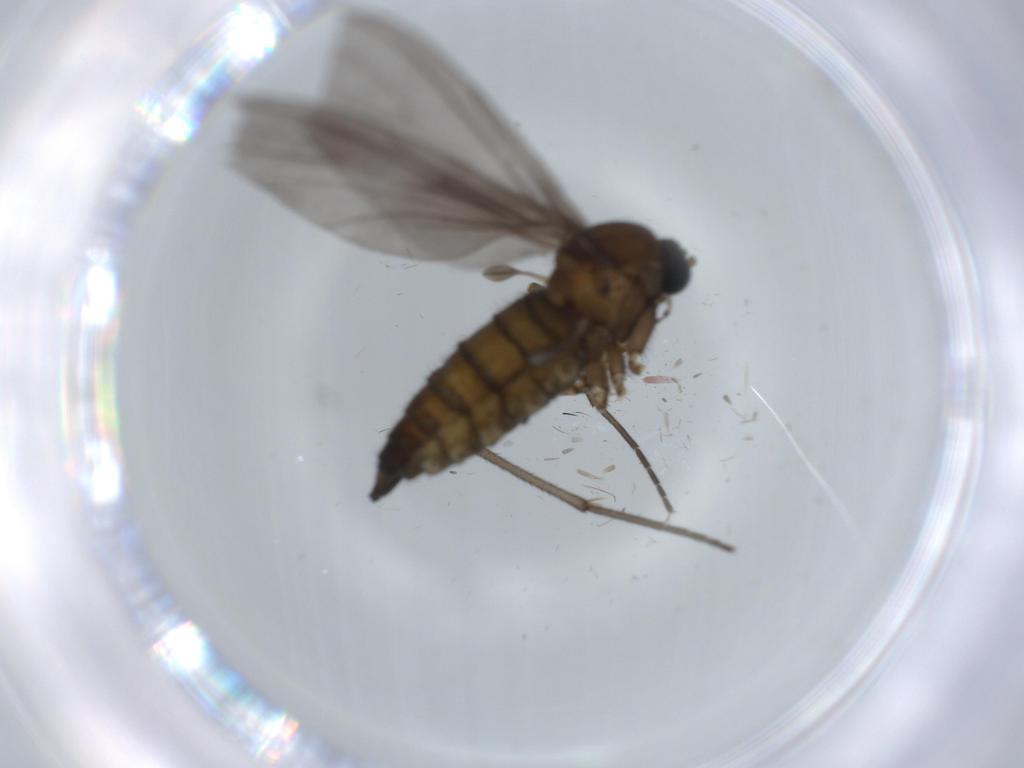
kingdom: Animalia
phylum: Arthropoda
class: Insecta
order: Diptera
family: Sciaridae
